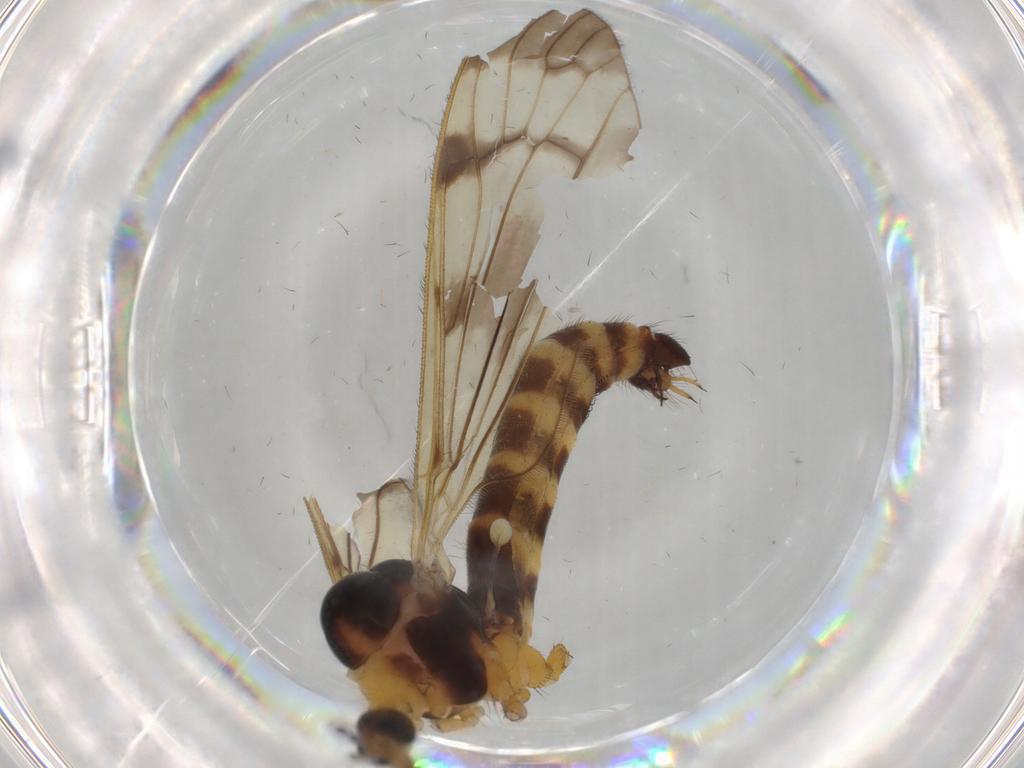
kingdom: Animalia
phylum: Arthropoda
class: Insecta
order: Diptera
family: Limoniidae
